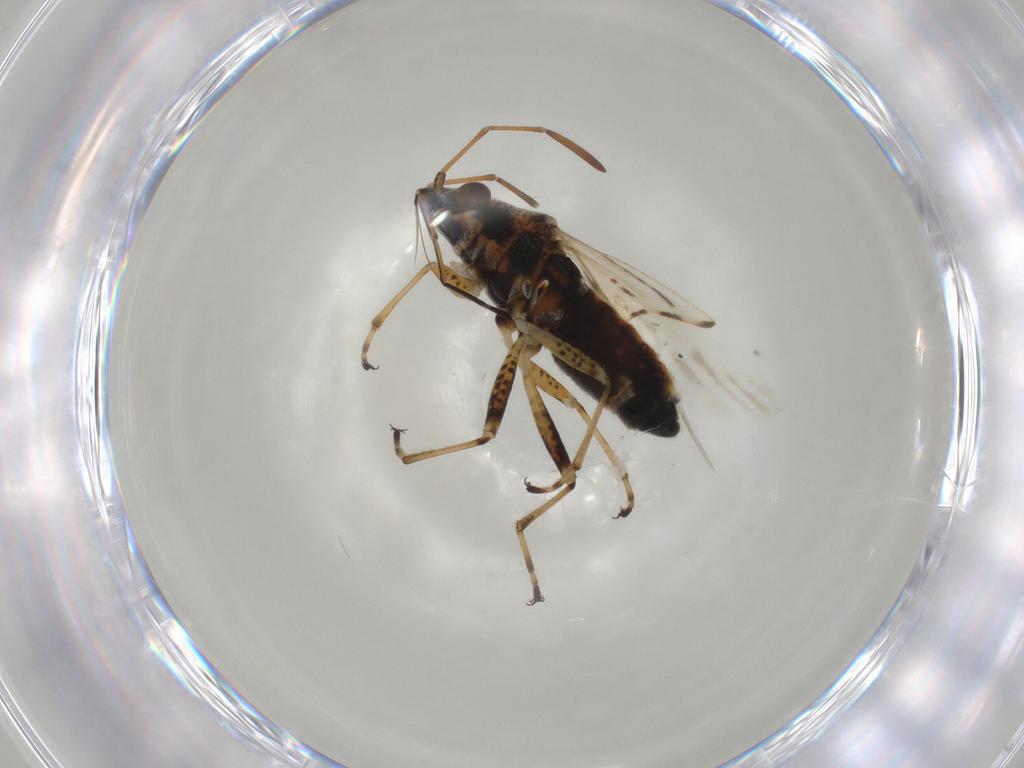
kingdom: Animalia
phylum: Arthropoda
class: Insecta
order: Hemiptera
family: Lygaeidae
